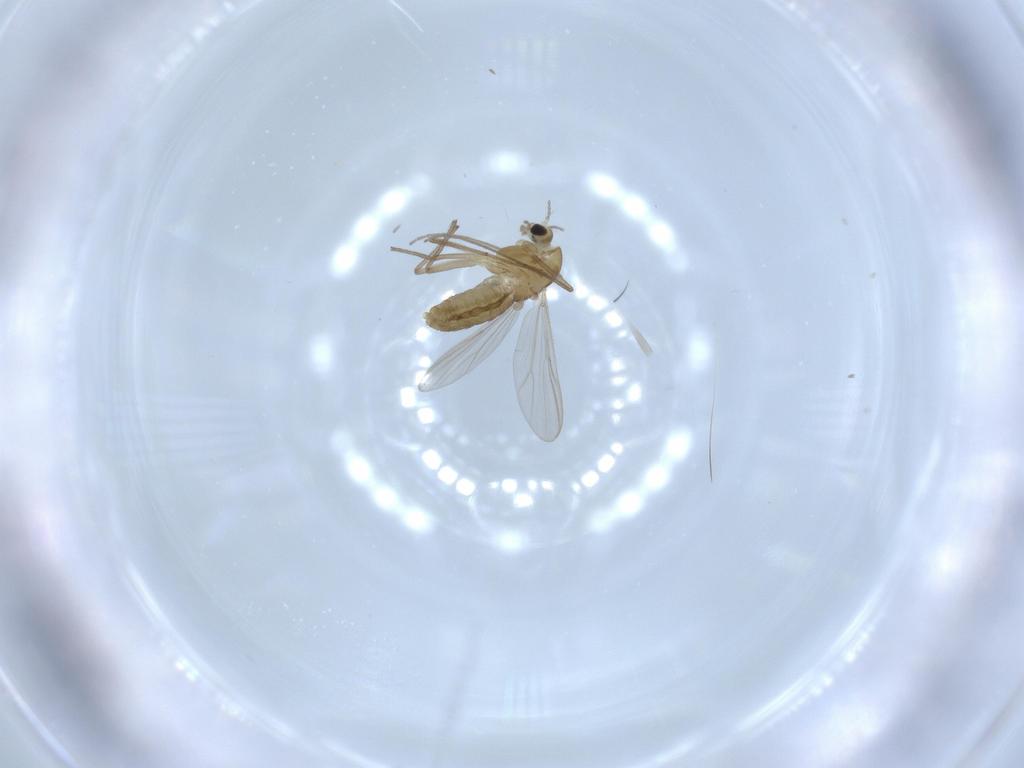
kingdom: Animalia
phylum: Arthropoda
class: Insecta
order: Diptera
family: Chironomidae
